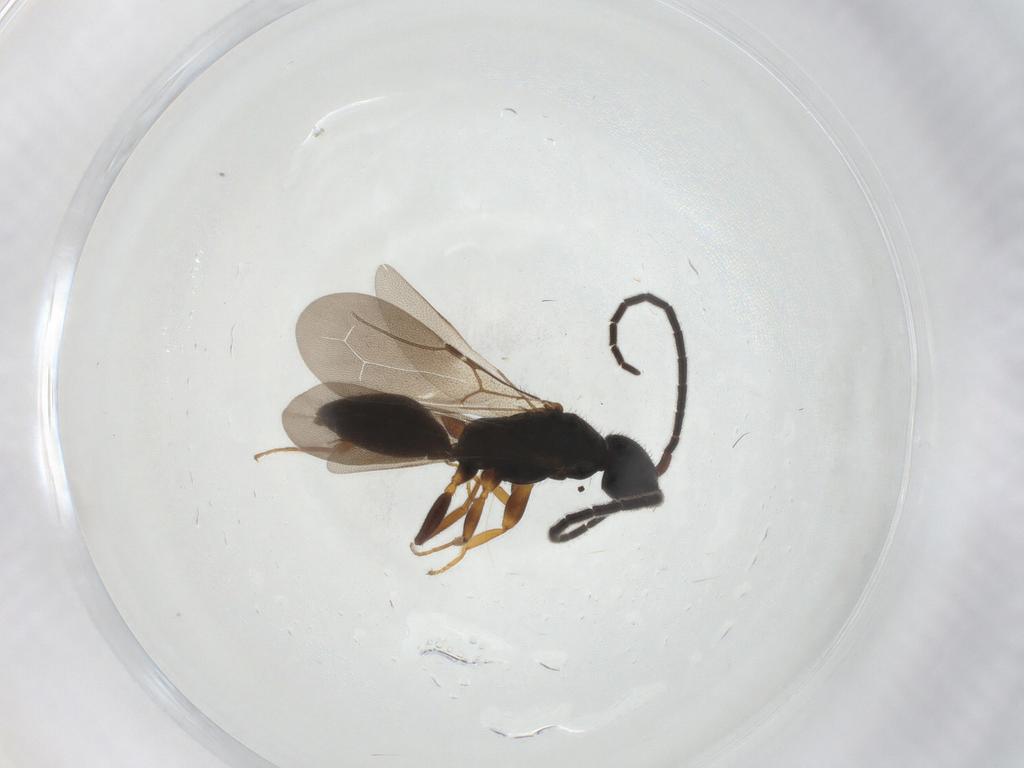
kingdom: Animalia
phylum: Arthropoda
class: Insecta
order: Hymenoptera
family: Bethylidae
